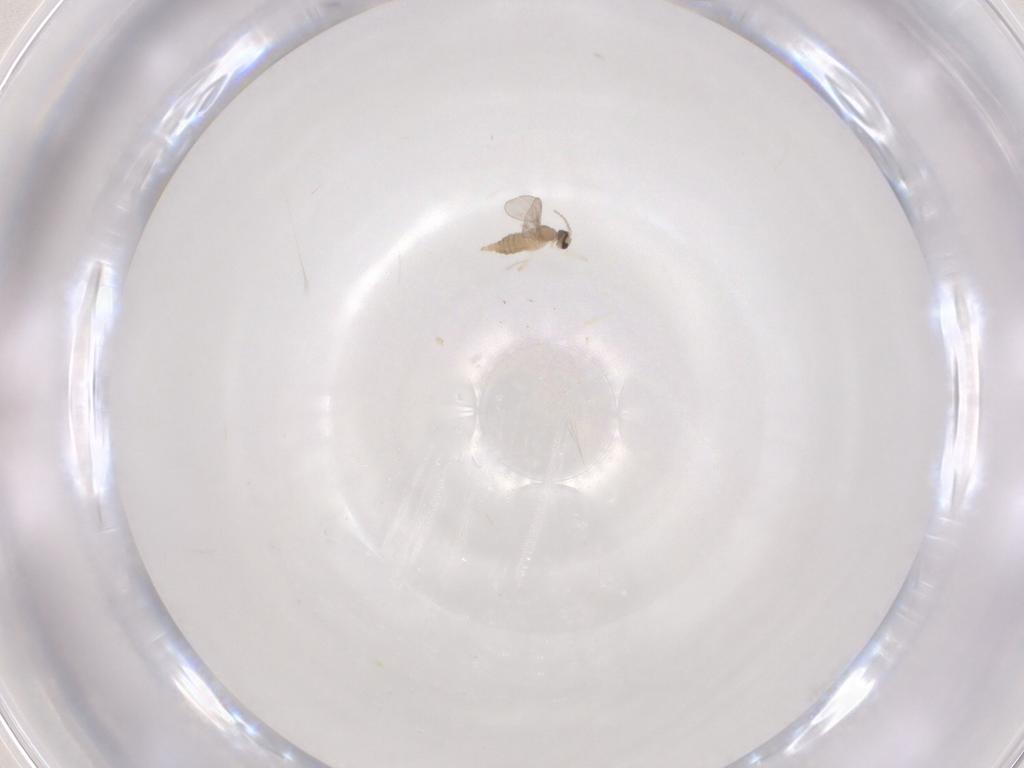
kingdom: Animalia
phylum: Arthropoda
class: Insecta
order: Diptera
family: Cecidomyiidae
